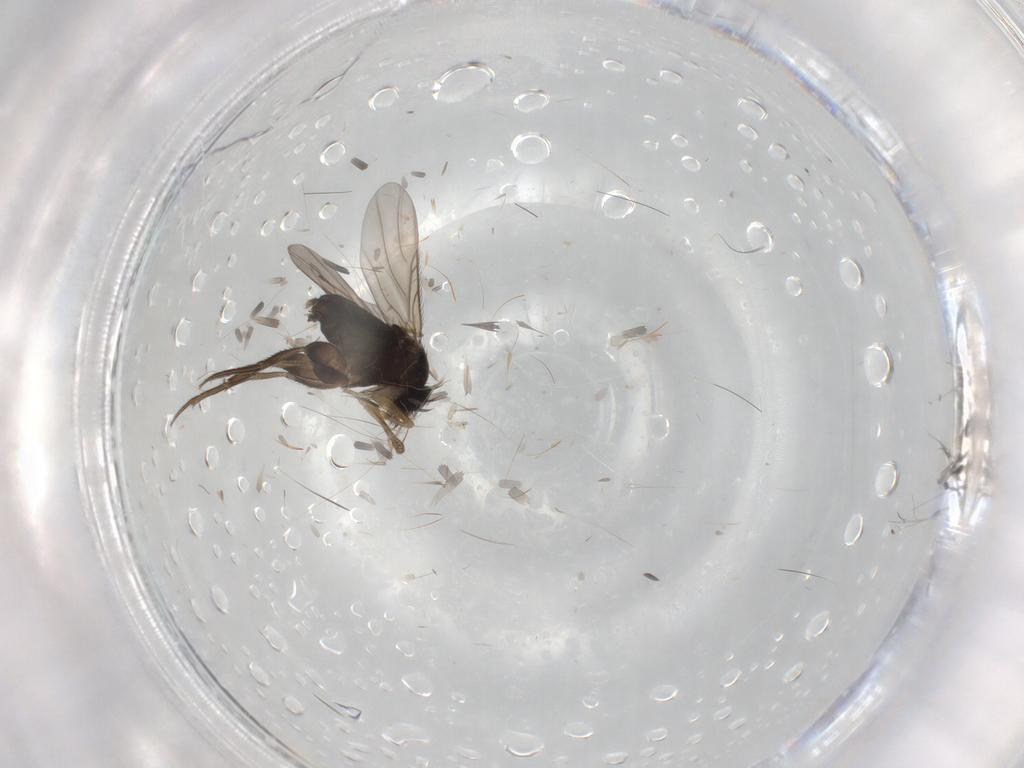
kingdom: Animalia
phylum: Arthropoda
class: Insecta
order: Diptera
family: Phoridae
